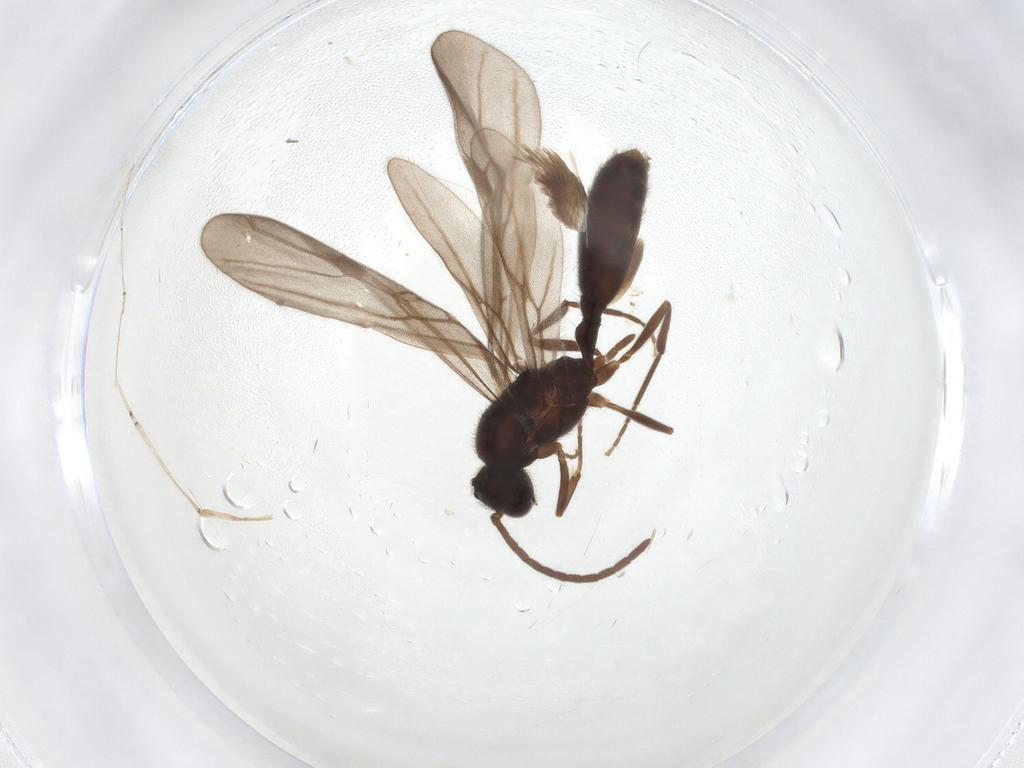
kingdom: Animalia
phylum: Arthropoda
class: Insecta
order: Hymenoptera
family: Formicidae
